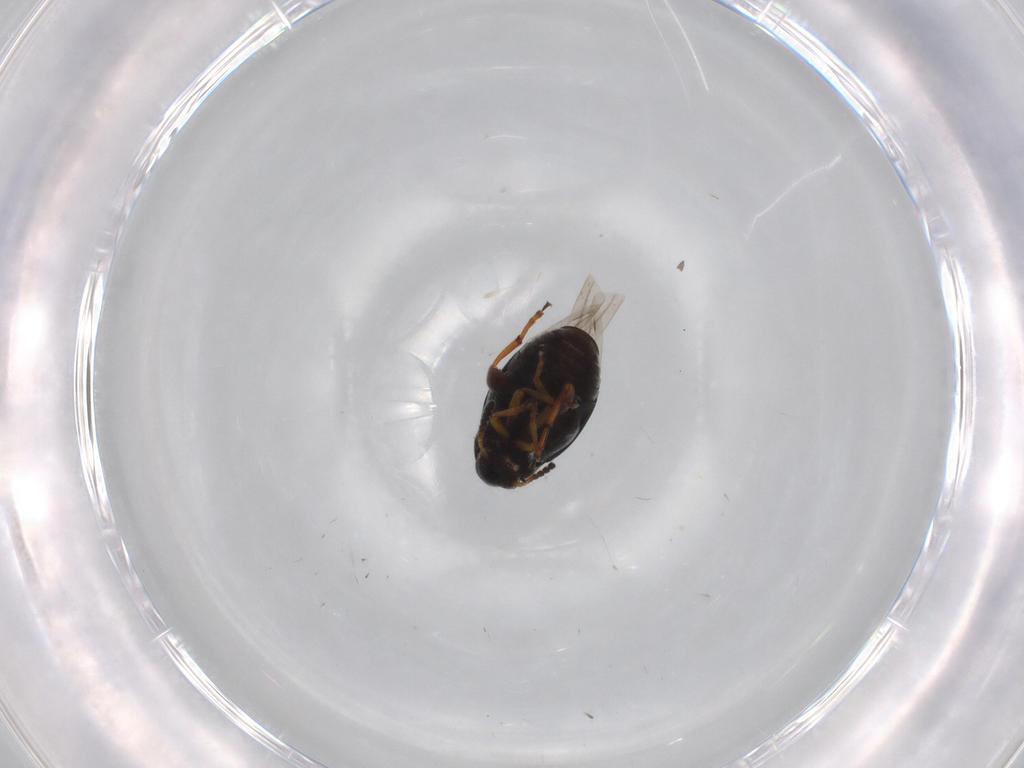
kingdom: Animalia
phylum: Arthropoda
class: Insecta
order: Coleoptera
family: Chrysomelidae
